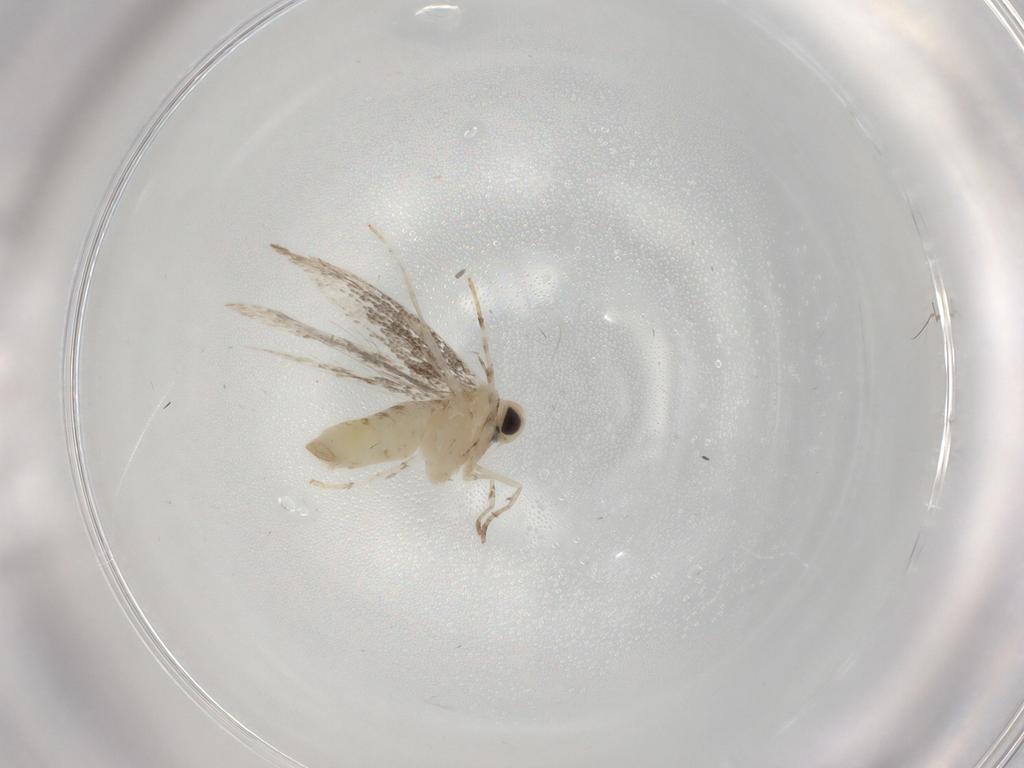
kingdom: Animalia
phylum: Arthropoda
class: Insecta
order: Lepidoptera
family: Gracillariidae
